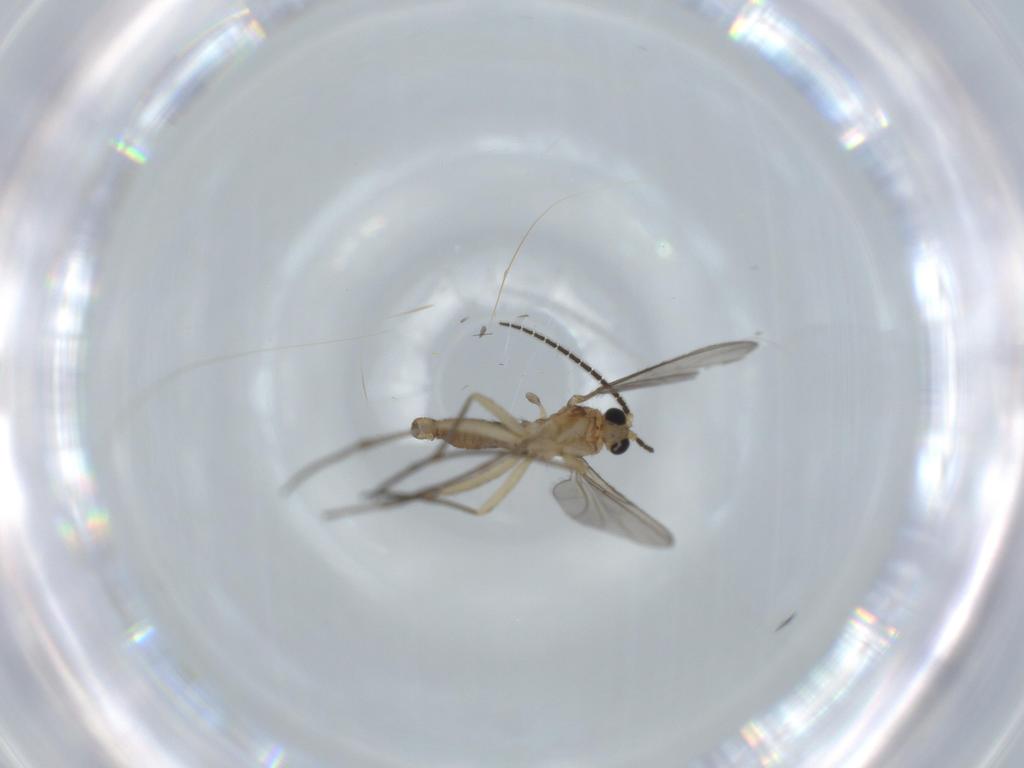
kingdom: Animalia
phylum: Arthropoda
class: Insecta
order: Diptera
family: Sciaridae
